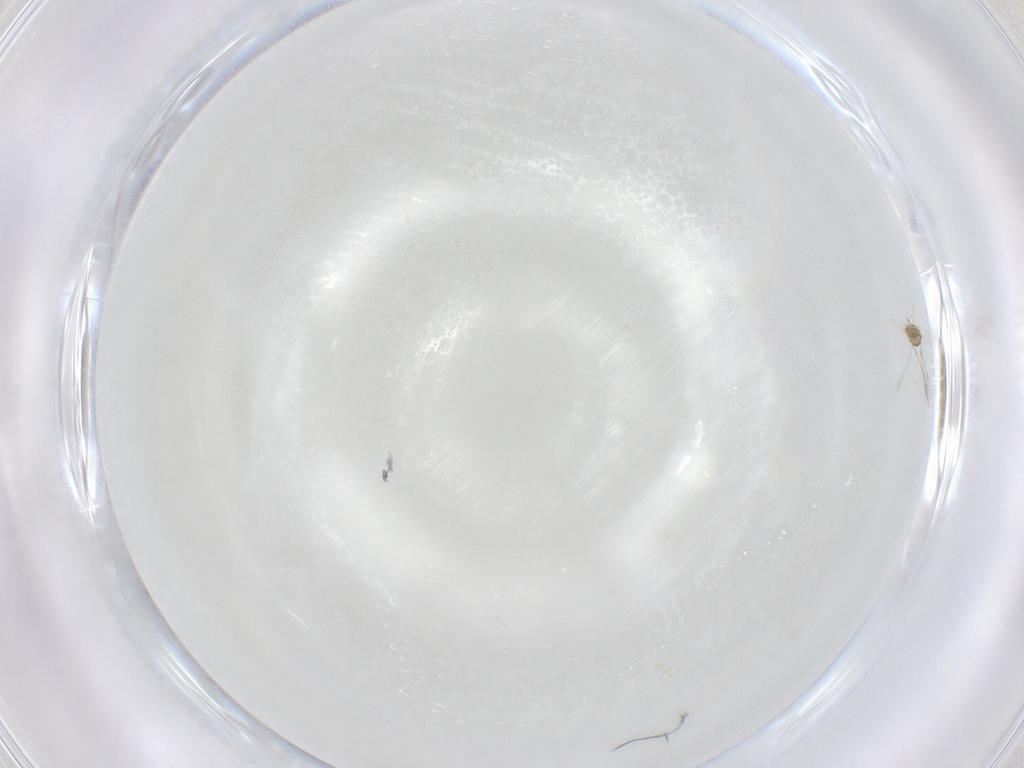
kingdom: Animalia
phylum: Arthropoda
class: Insecta
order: Hymenoptera
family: Mymaridae
